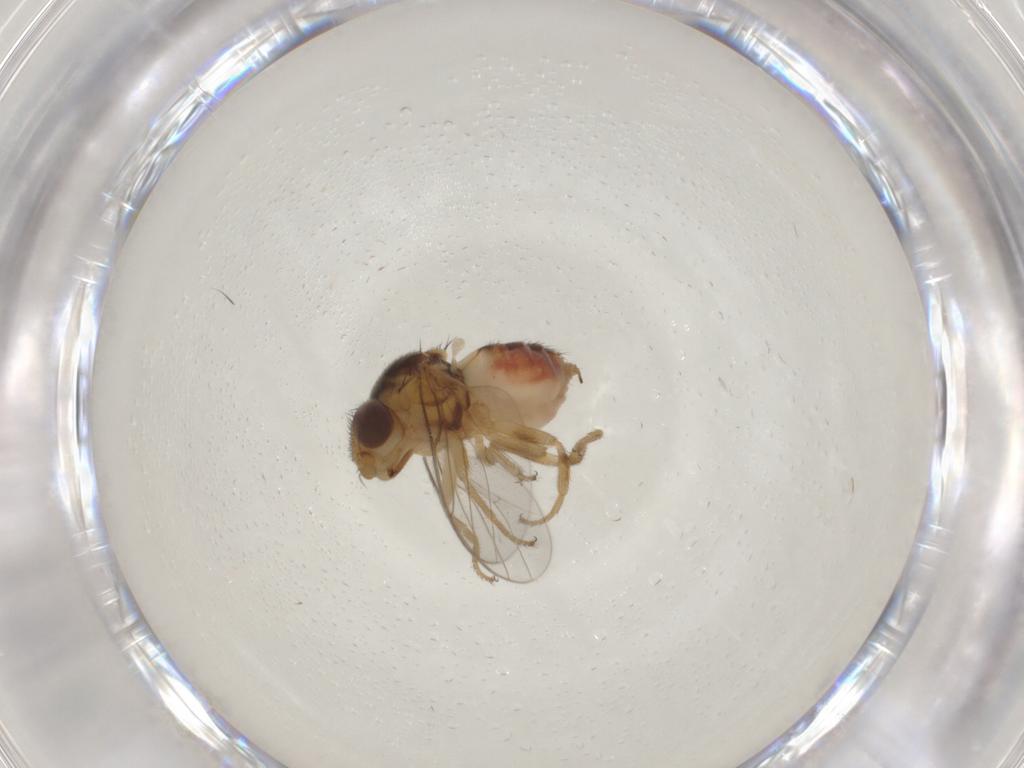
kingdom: Animalia
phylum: Arthropoda
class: Insecta
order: Diptera
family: Chloropidae
